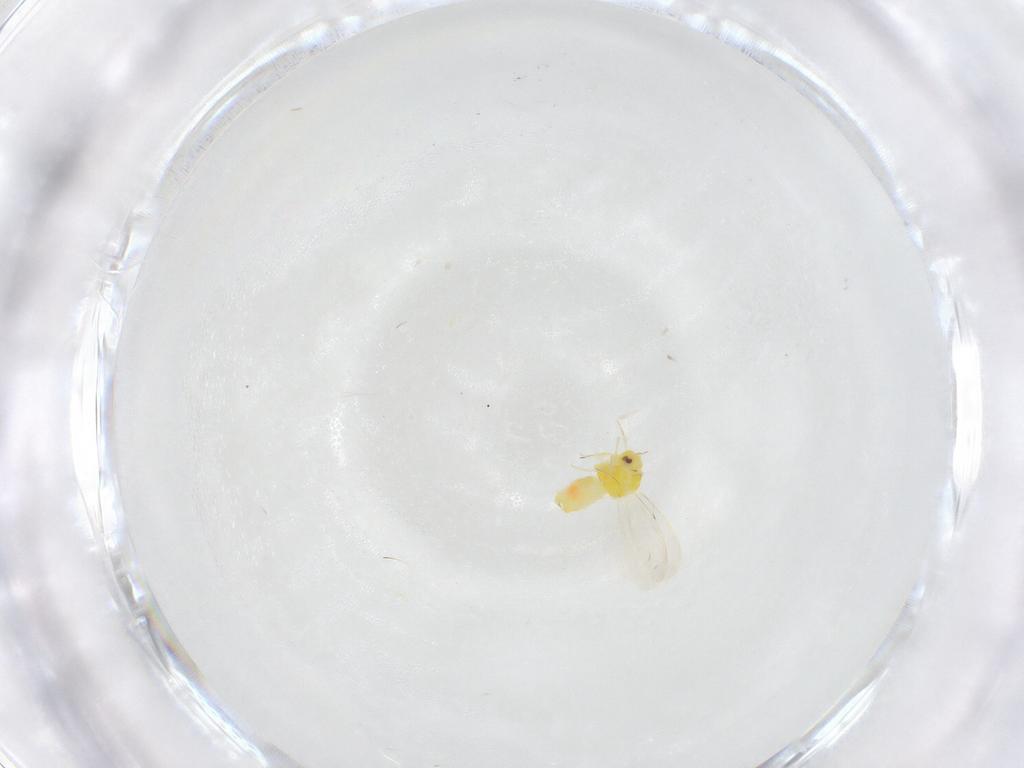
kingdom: Animalia
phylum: Arthropoda
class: Insecta
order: Hemiptera
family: Aleyrodidae
